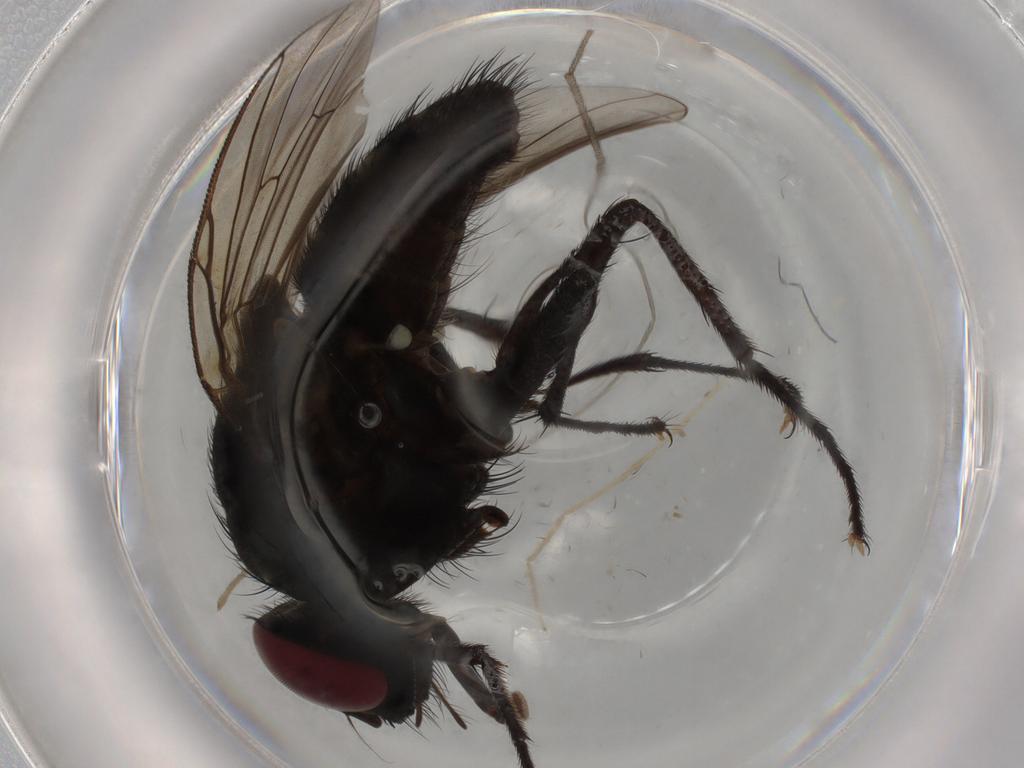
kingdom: Animalia
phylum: Arthropoda
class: Insecta
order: Diptera
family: Muscidae
